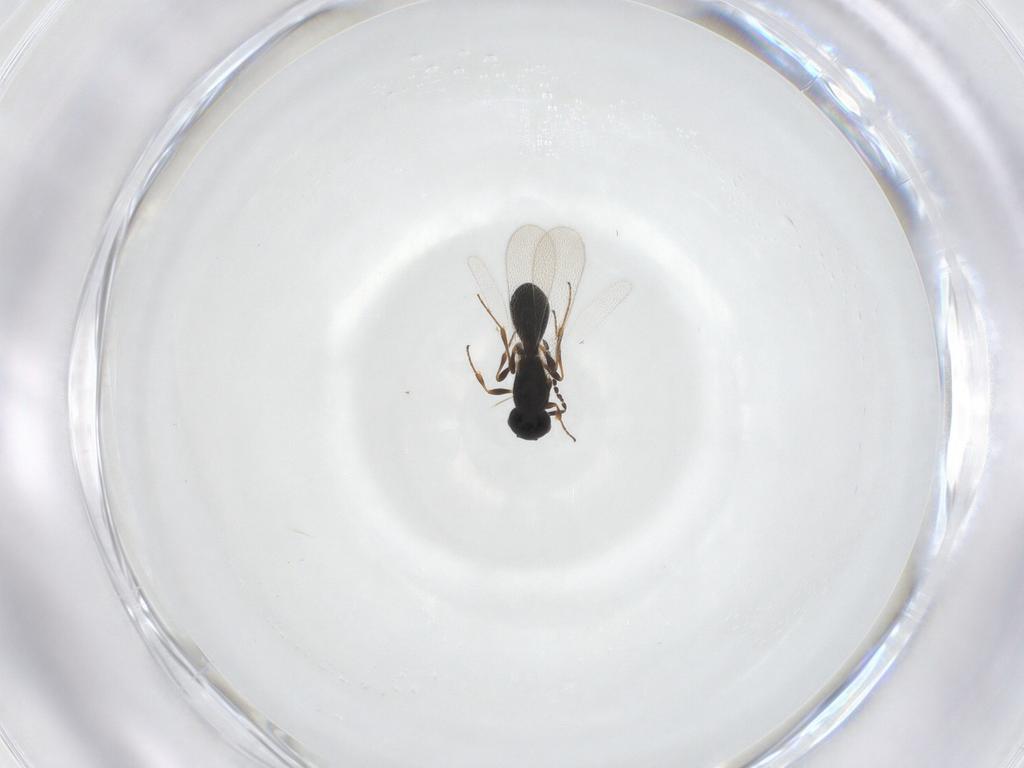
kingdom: Animalia
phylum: Arthropoda
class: Insecta
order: Hymenoptera
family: Platygastridae
